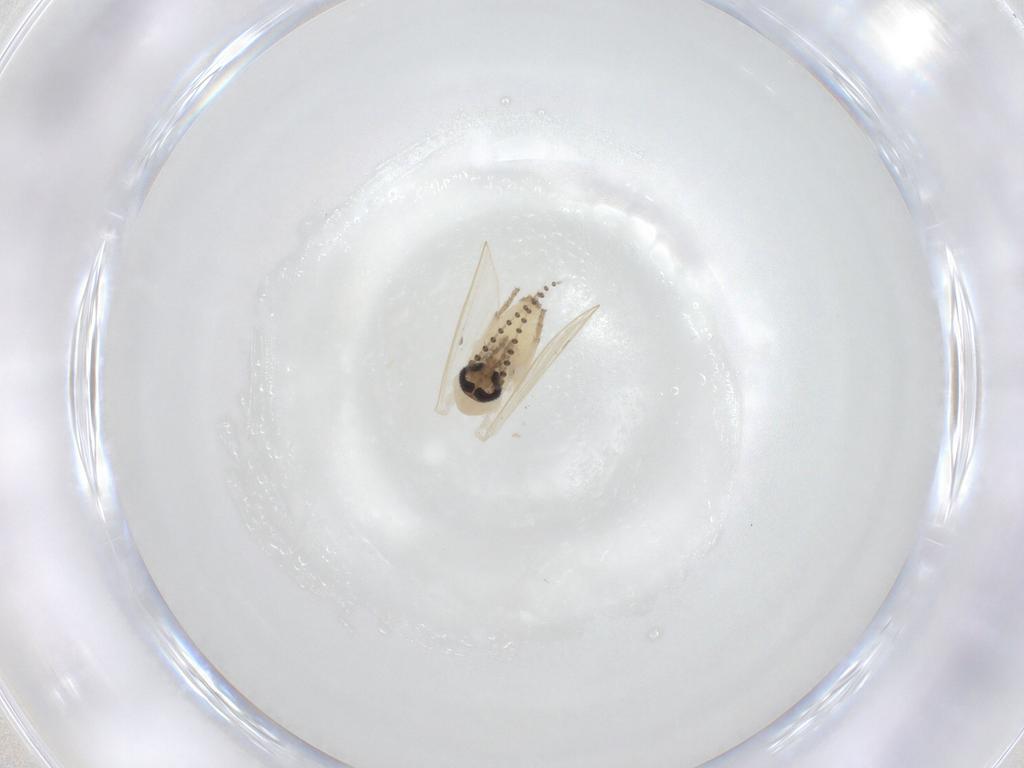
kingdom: Animalia
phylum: Arthropoda
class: Insecta
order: Diptera
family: Psychodidae
